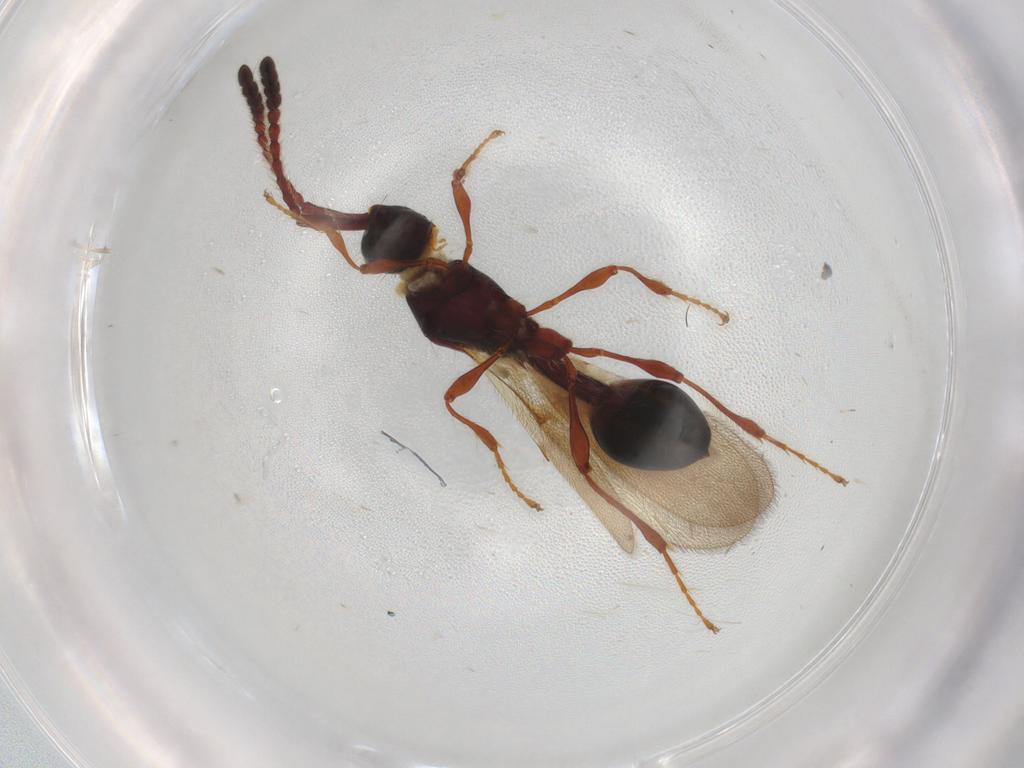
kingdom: Animalia
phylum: Arthropoda
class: Insecta
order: Hymenoptera
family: Diapriidae
